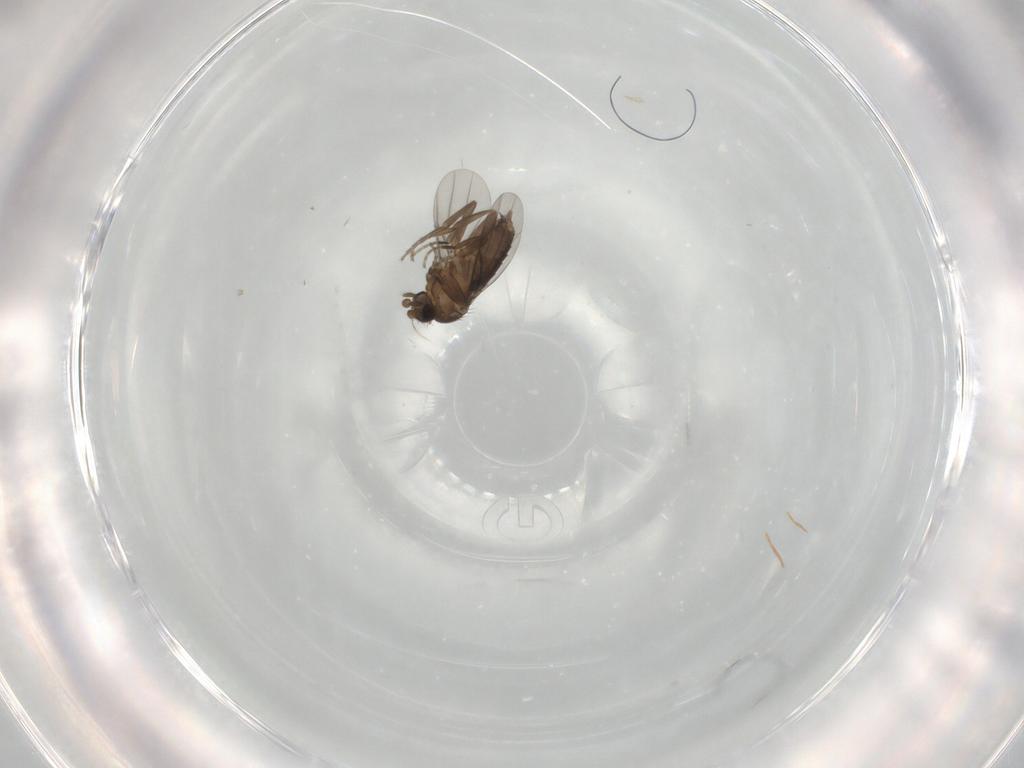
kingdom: Animalia
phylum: Arthropoda
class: Insecta
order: Diptera
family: Phoridae
